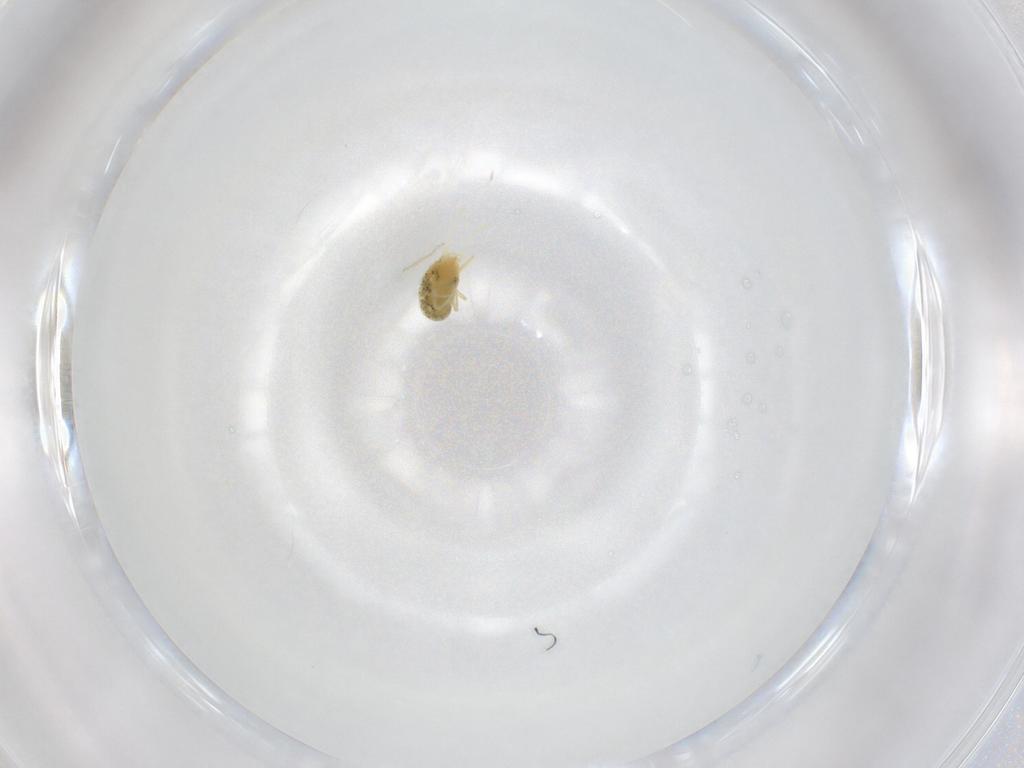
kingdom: Animalia
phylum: Arthropoda
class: Arachnida
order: Trombidiformes
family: Tetranychidae
